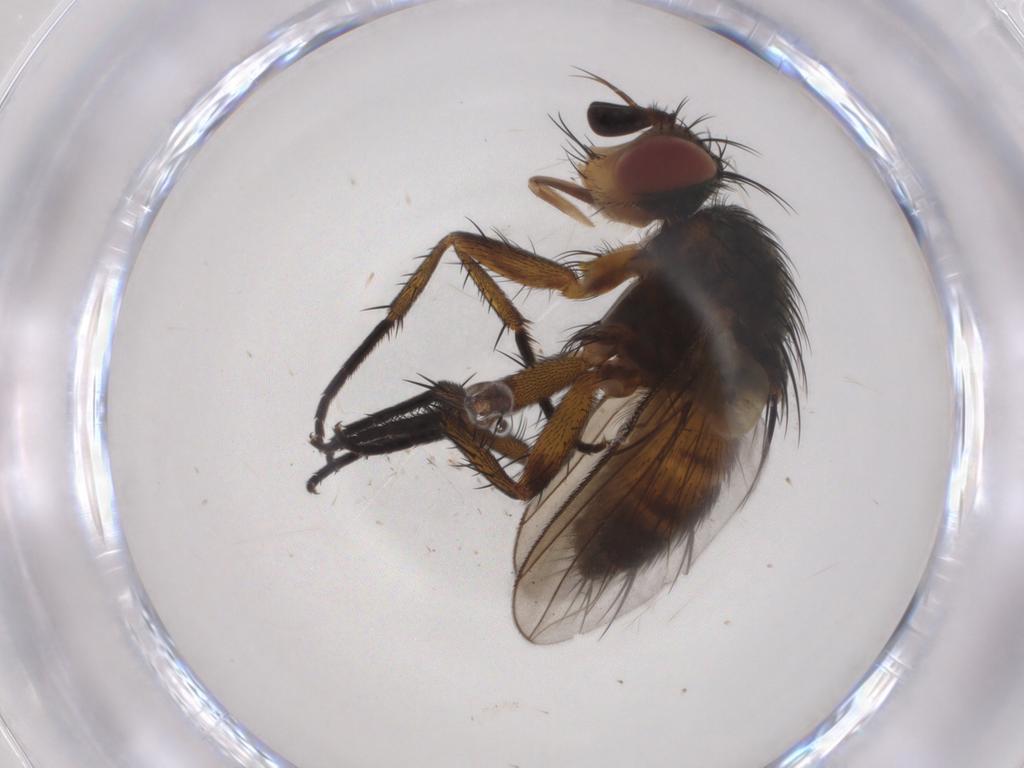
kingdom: Animalia
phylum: Arthropoda
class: Insecta
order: Diptera
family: Tachinidae
